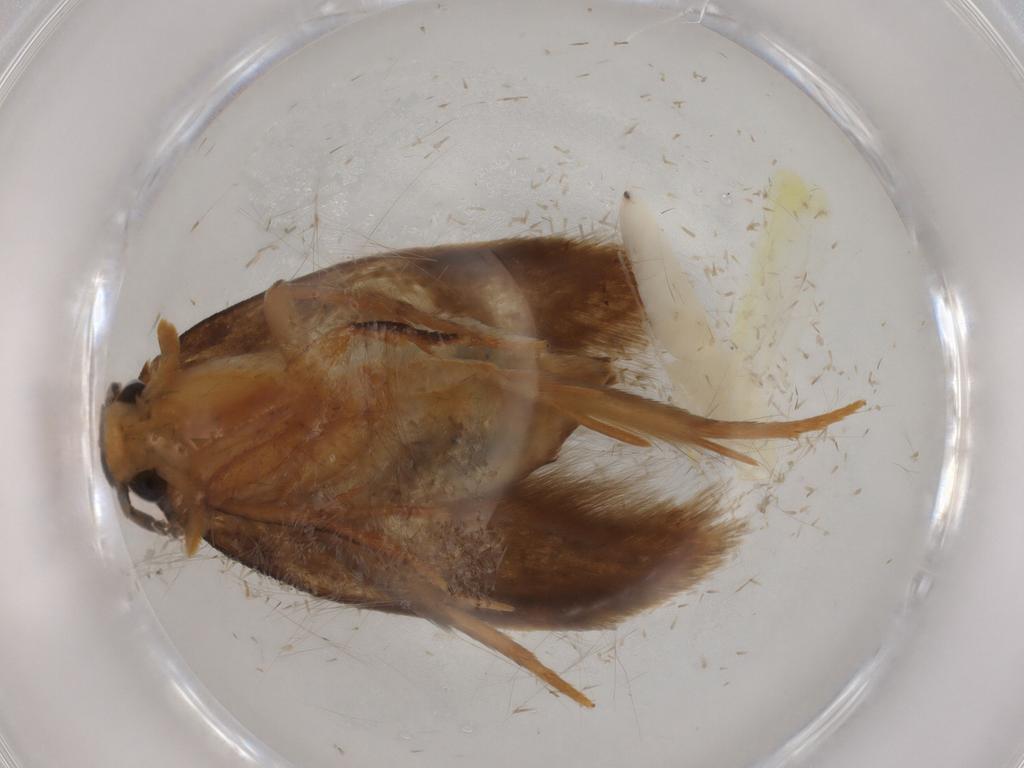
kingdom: Animalia
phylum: Arthropoda
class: Insecta
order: Lepidoptera
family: Tineidae
